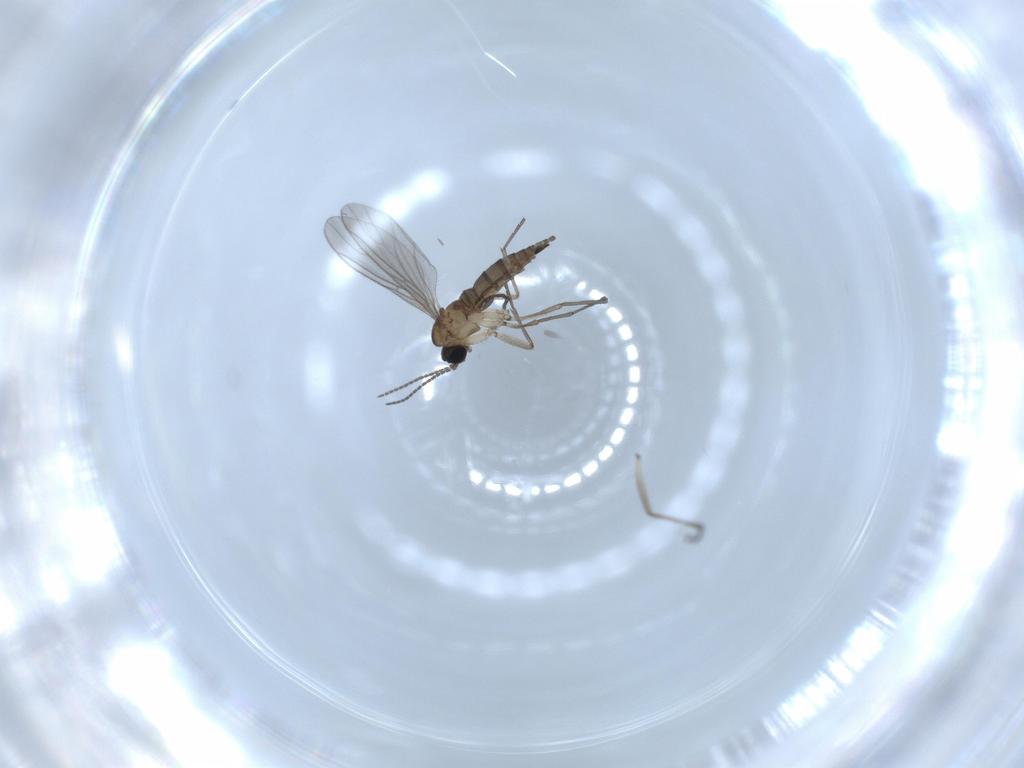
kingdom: Animalia
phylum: Arthropoda
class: Insecta
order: Diptera
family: Sciaridae
